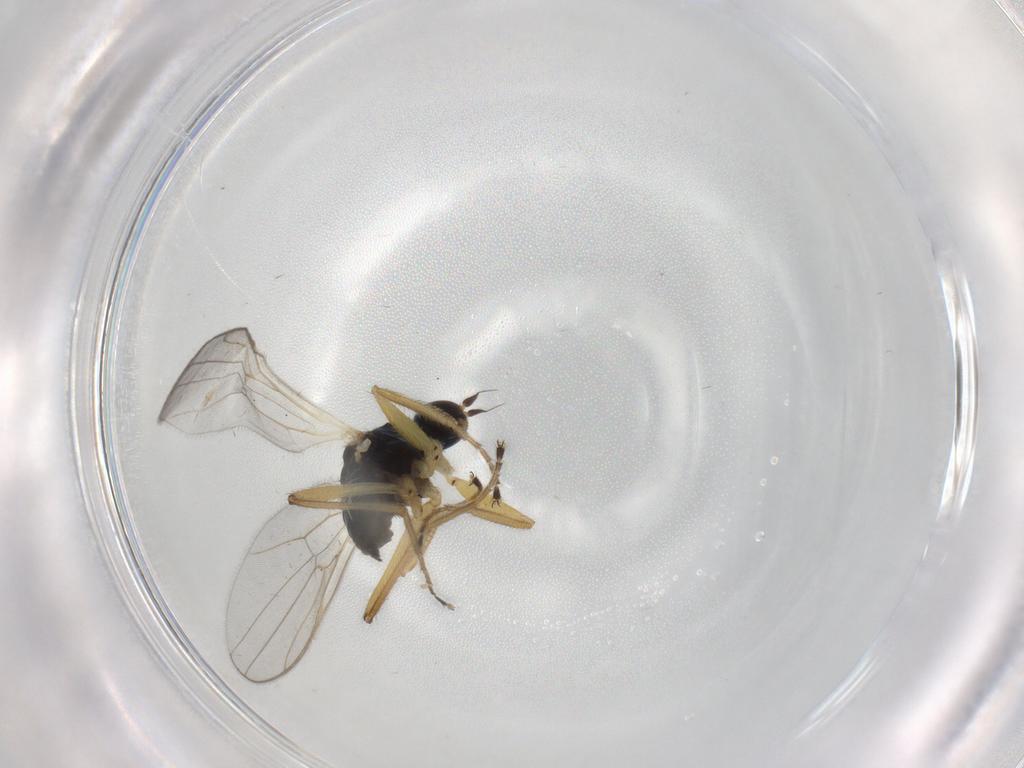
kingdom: Animalia
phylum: Arthropoda
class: Insecta
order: Diptera
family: Hybotidae
